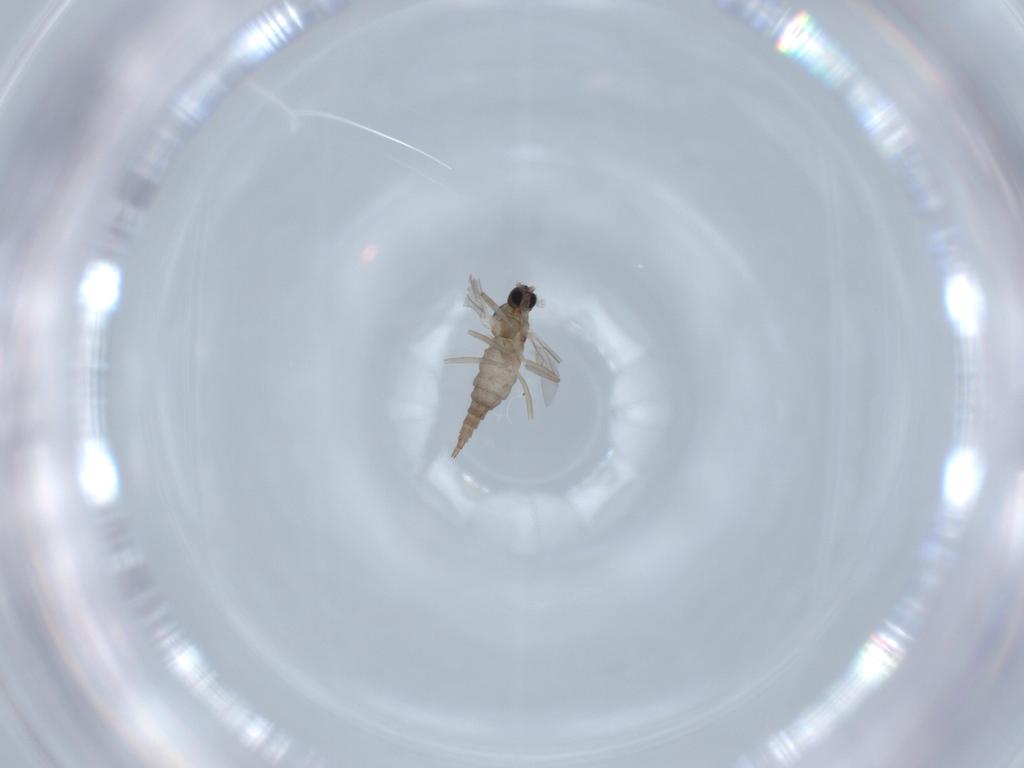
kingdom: Animalia
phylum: Arthropoda
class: Insecta
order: Diptera
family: Cecidomyiidae
